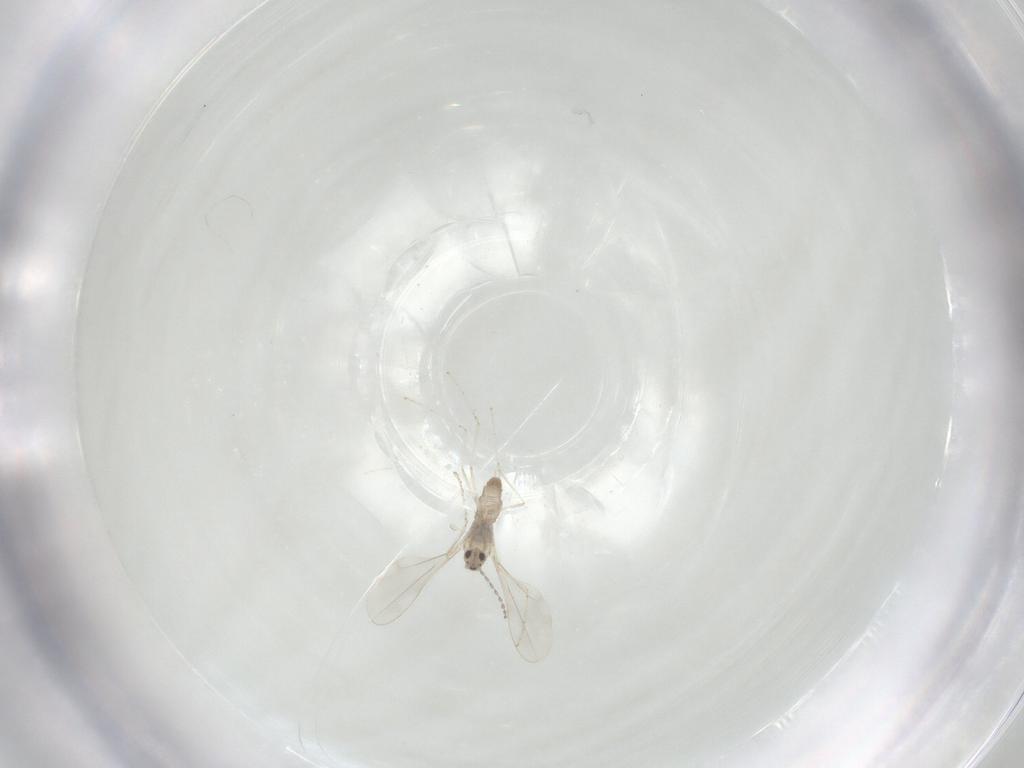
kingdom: Animalia
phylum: Arthropoda
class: Insecta
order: Diptera
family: Cecidomyiidae
